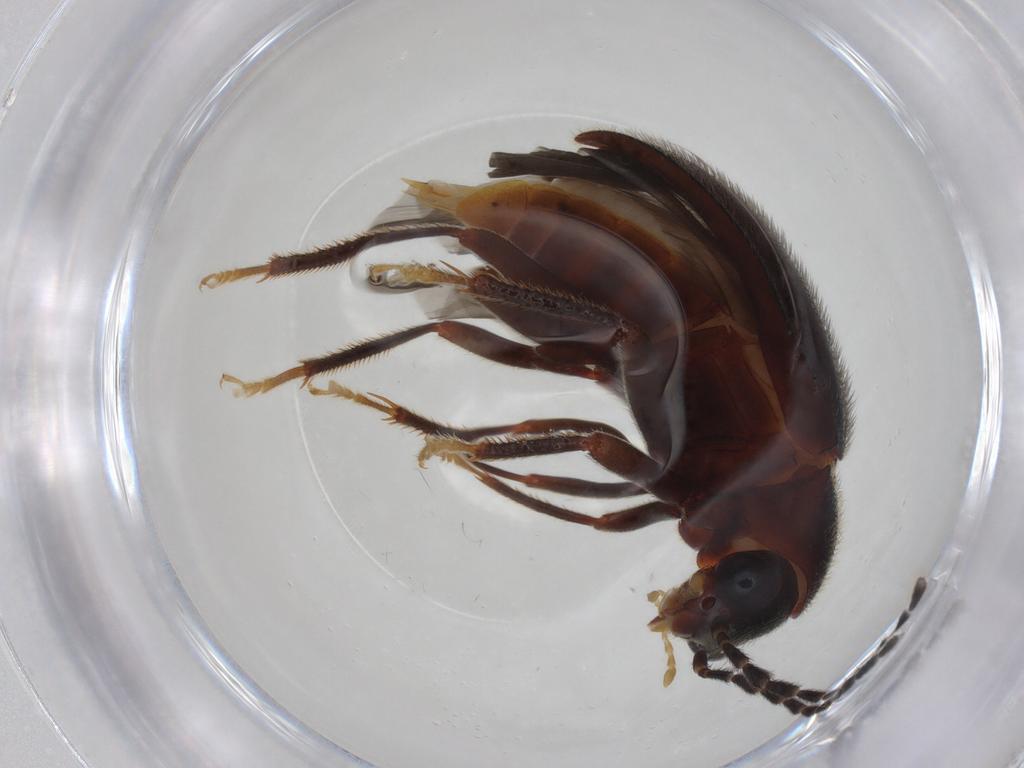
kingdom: Animalia
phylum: Arthropoda
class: Insecta
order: Coleoptera
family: Ptilodactylidae
